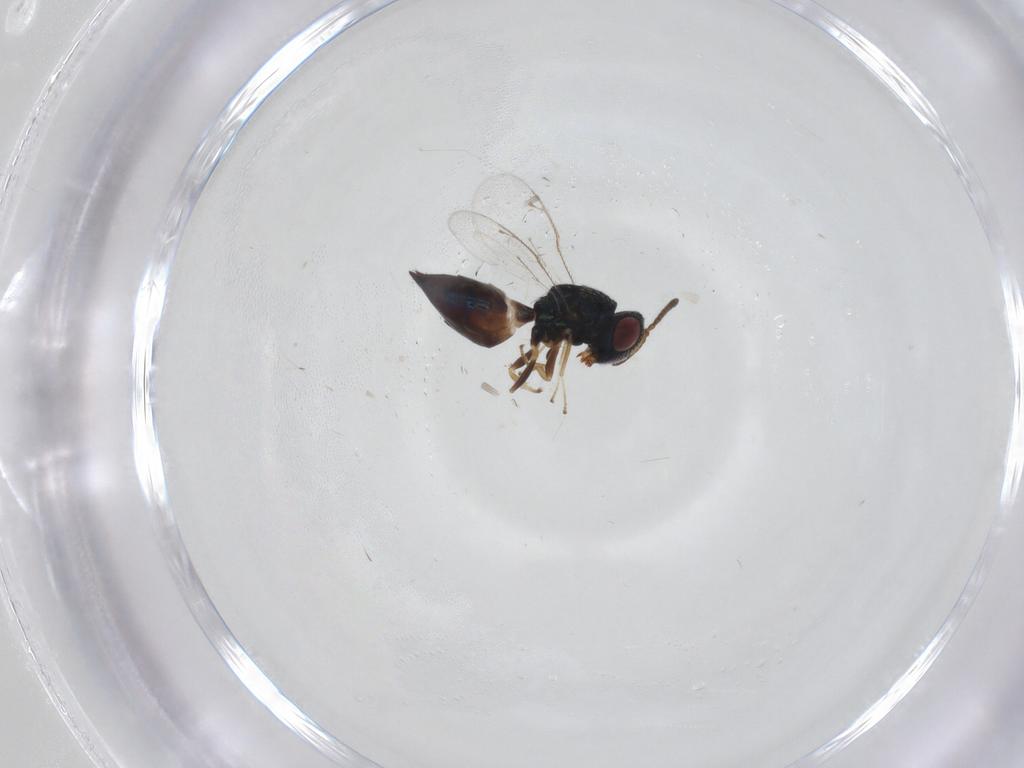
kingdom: Animalia
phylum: Arthropoda
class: Insecta
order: Hymenoptera
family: Pteromalidae
